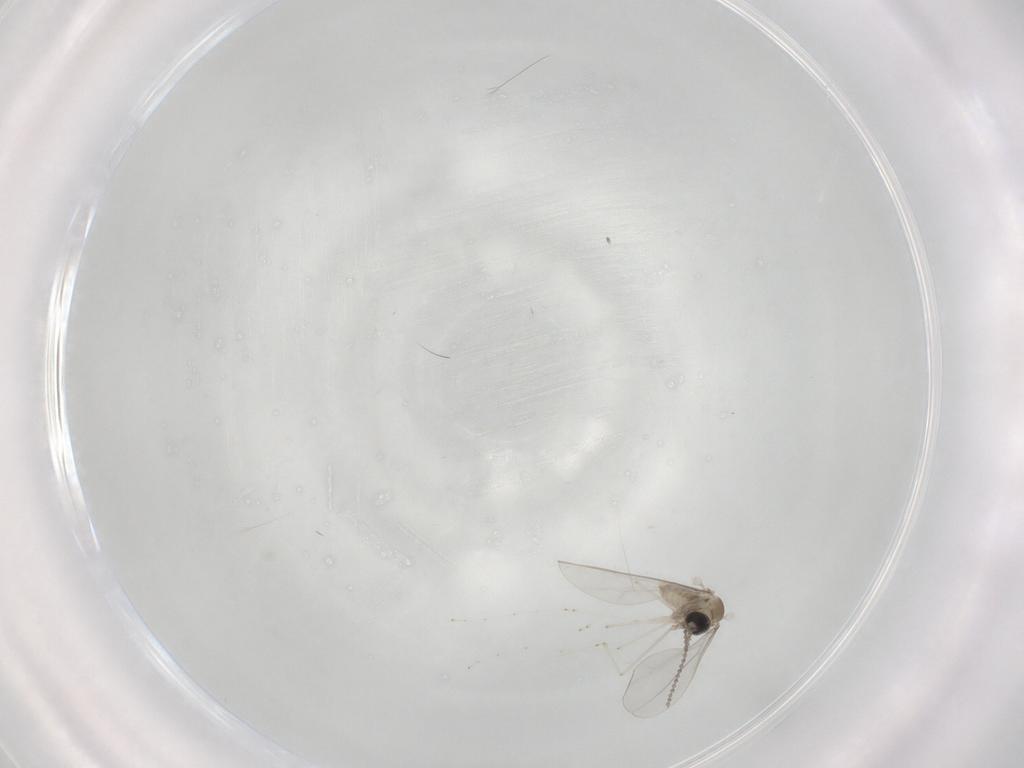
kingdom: Animalia
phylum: Arthropoda
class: Insecta
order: Diptera
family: Cecidomyiidae
